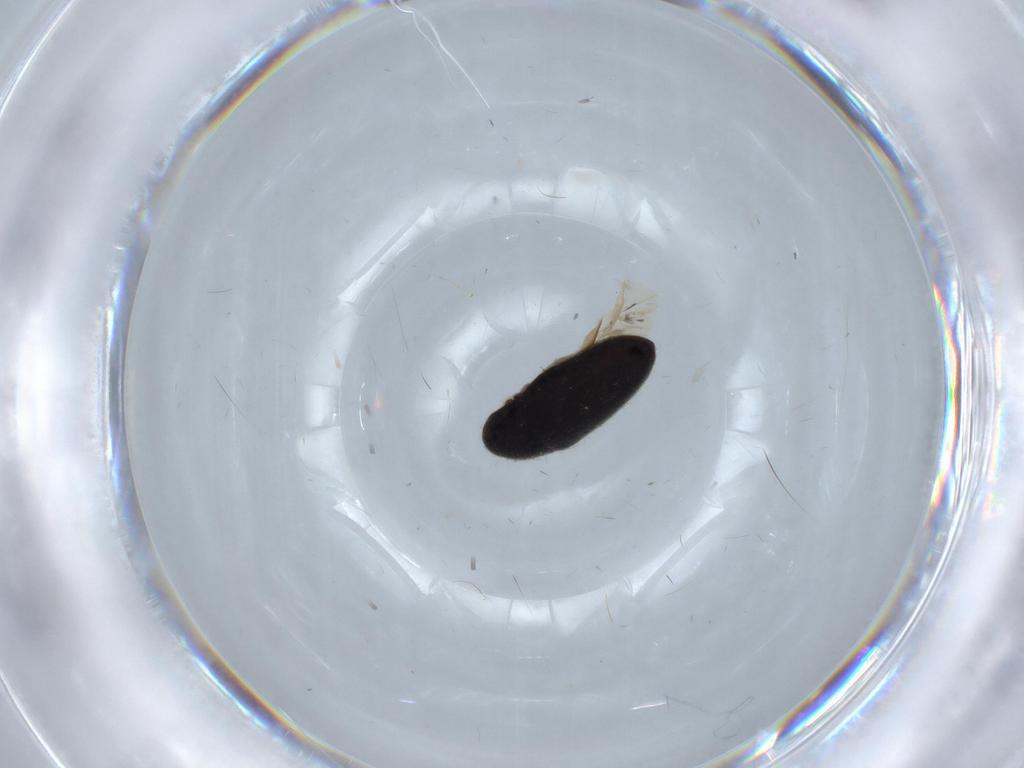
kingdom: Animalia
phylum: Arthropoda
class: Insecta
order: Coleoptera
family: Throscidae
